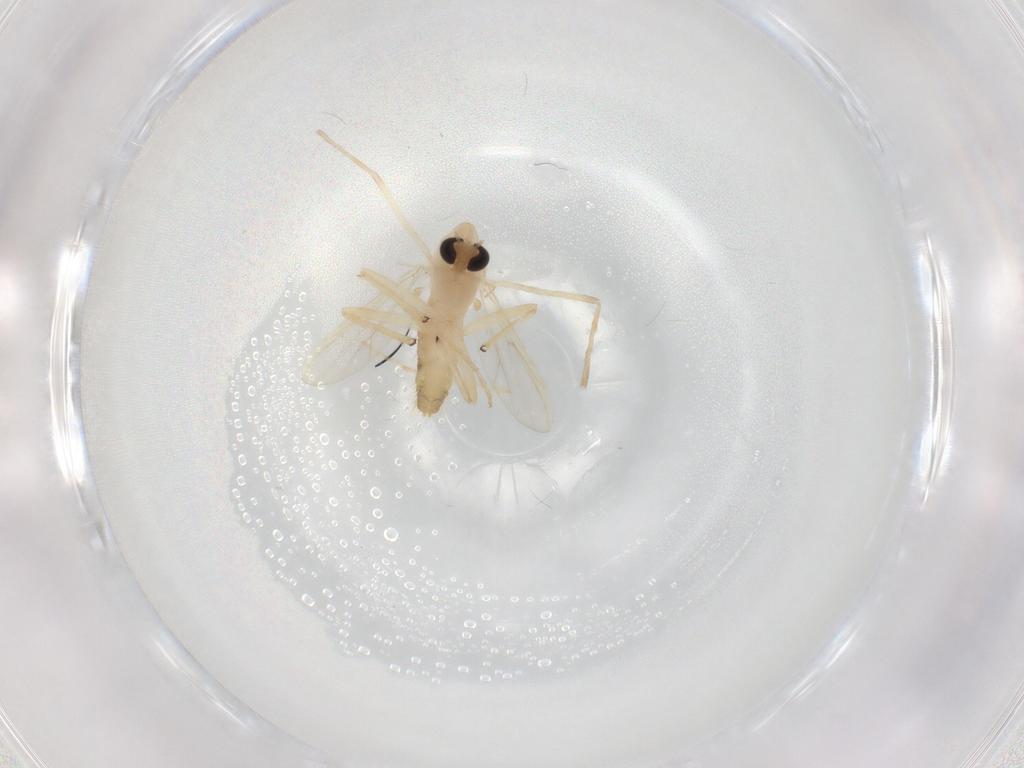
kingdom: Animalia
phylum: Arthropoda
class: Insecta
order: Diptera
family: Chironomidae
